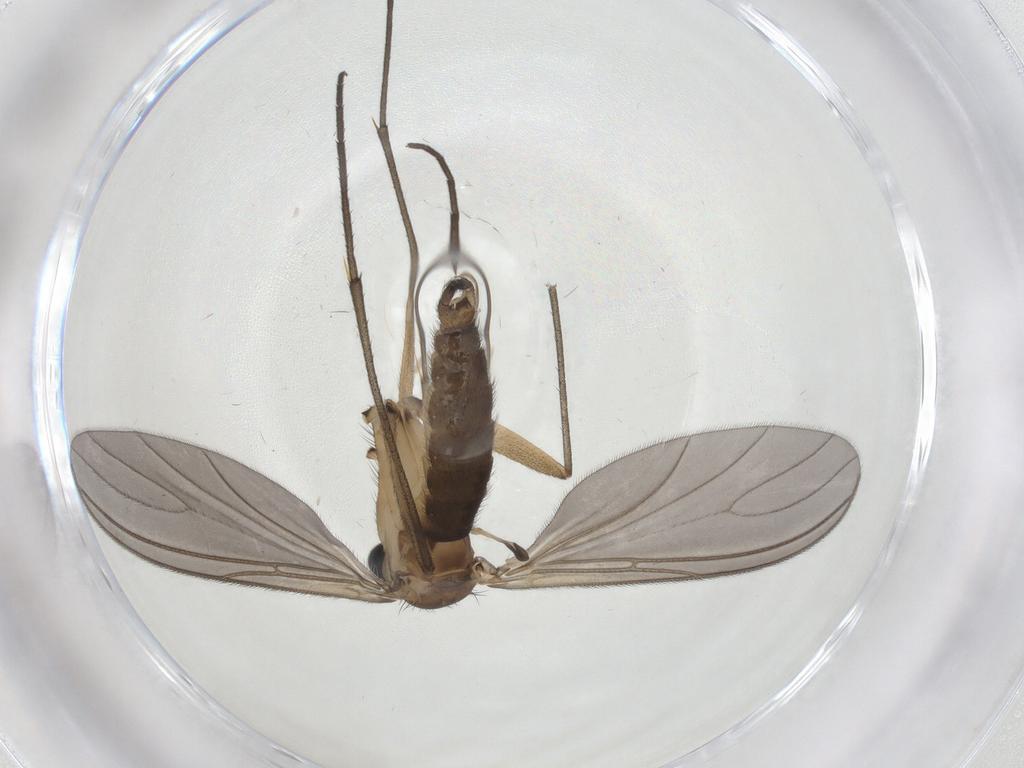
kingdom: Animalia
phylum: Arthropoda
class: Insecta
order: Diptera
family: Sciaridae
